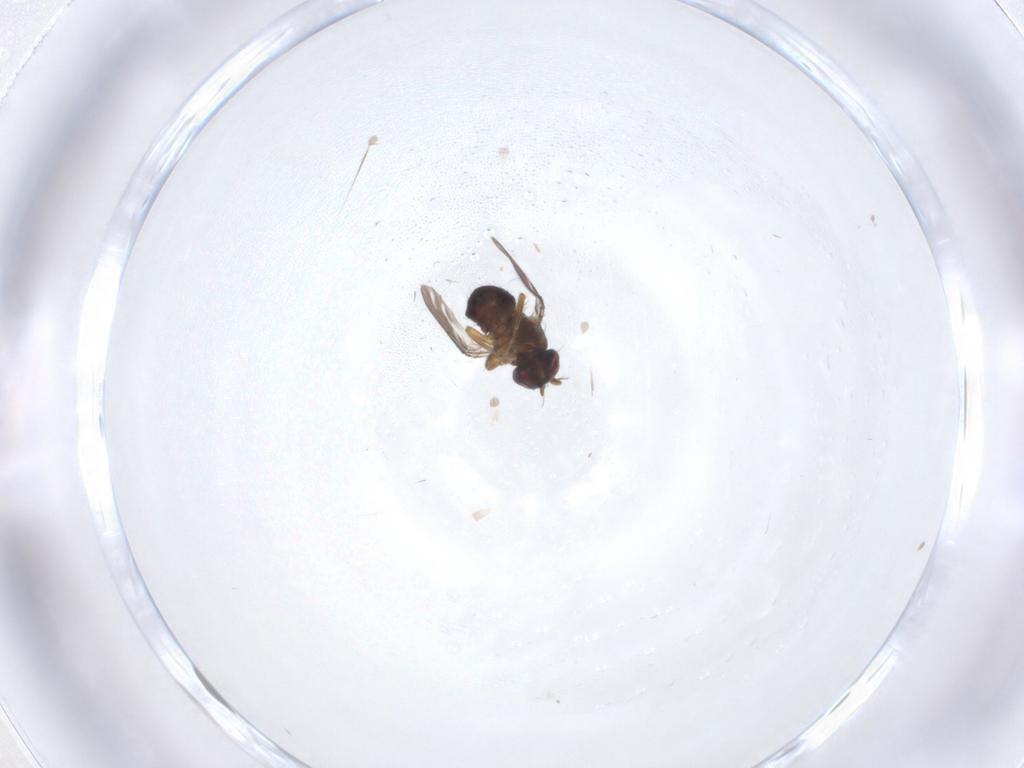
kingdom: Animalia
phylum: Arthropoda
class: Insecta
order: Diptera
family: Ephydridae
